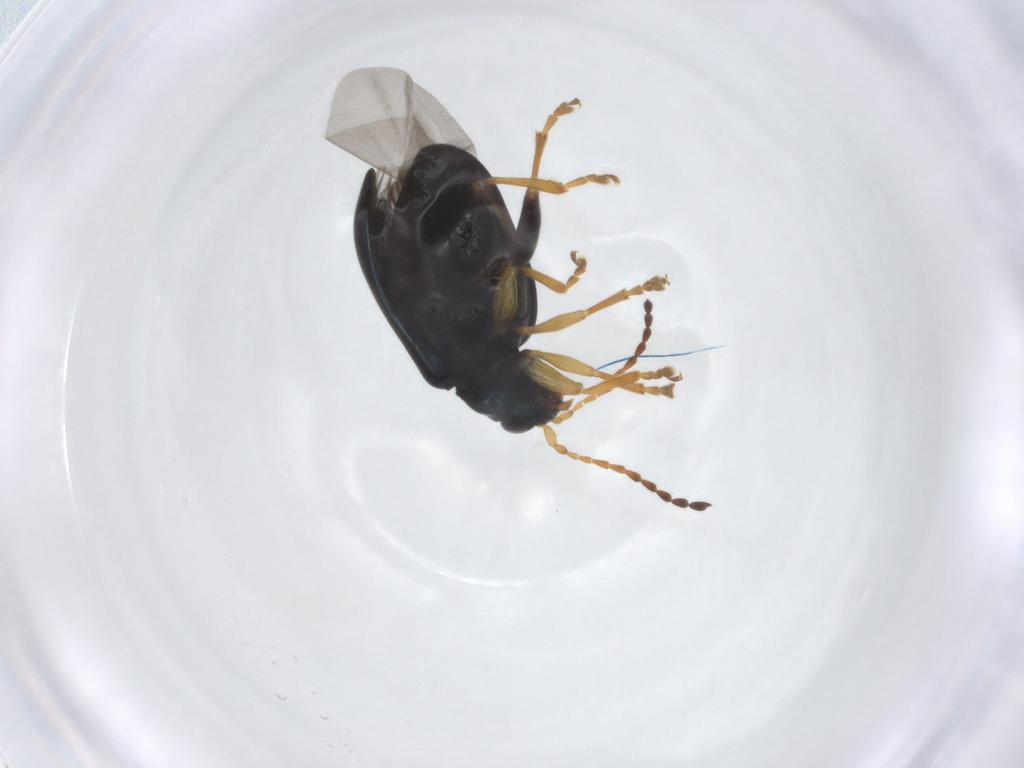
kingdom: Animalia
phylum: Arthropoda
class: Insecta
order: Coleoptera
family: Chrysomelidae
